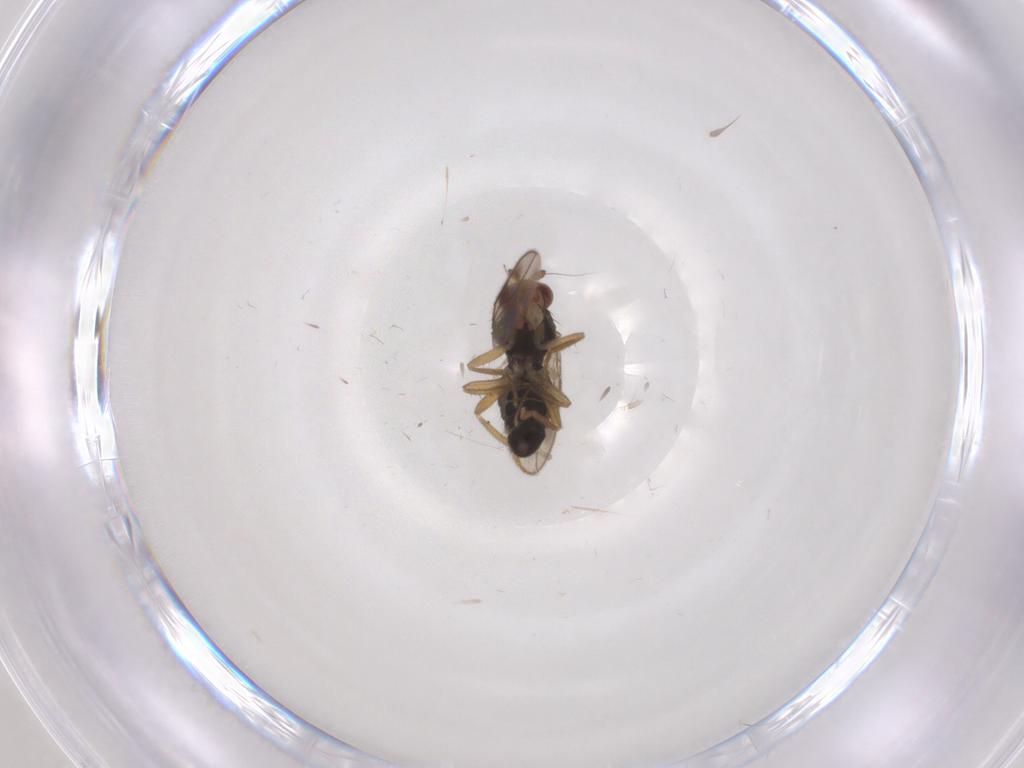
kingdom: Animalia
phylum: Arthropoda
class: Insecta
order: Diptera
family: Sphaeroceridae
